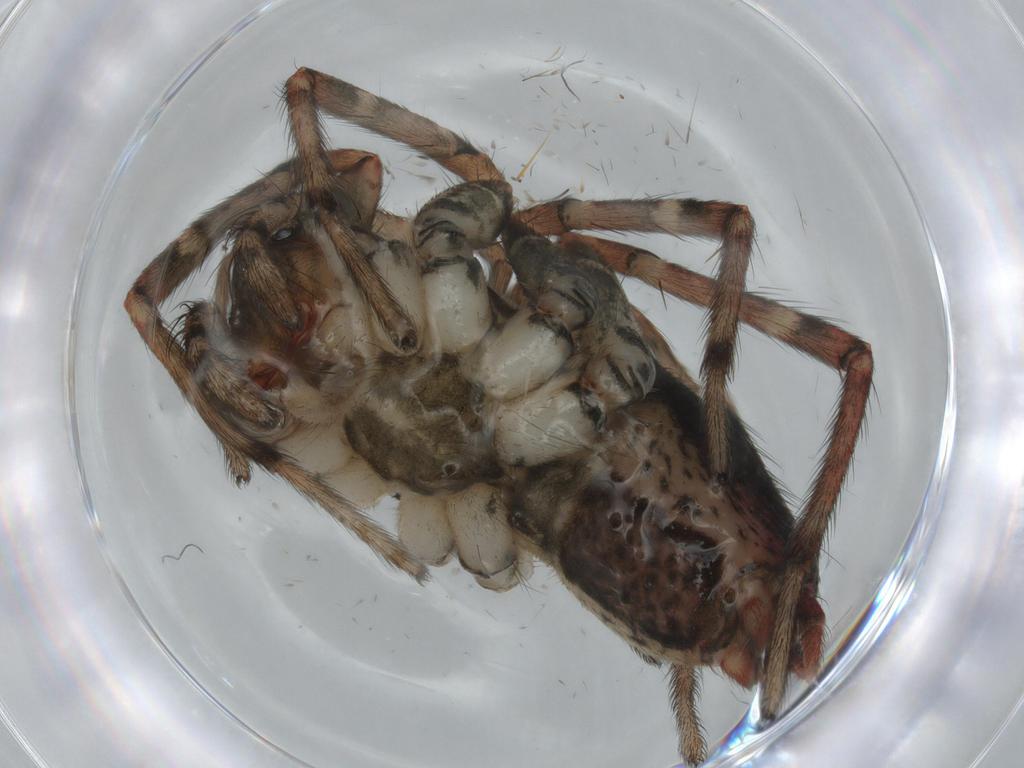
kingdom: Animalia
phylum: Arthropoda
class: Arachnida
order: Araneae
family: Agelenidae
